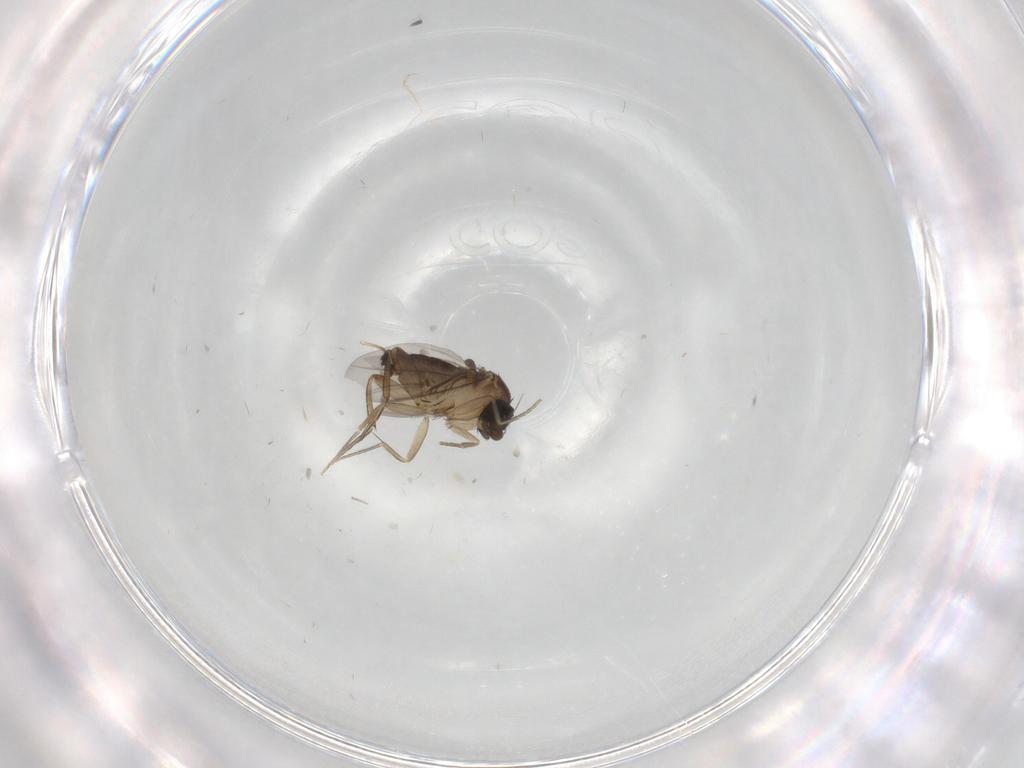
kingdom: Animalia
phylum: Arthropoda
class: Insecta
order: Diptera
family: Phoridae
